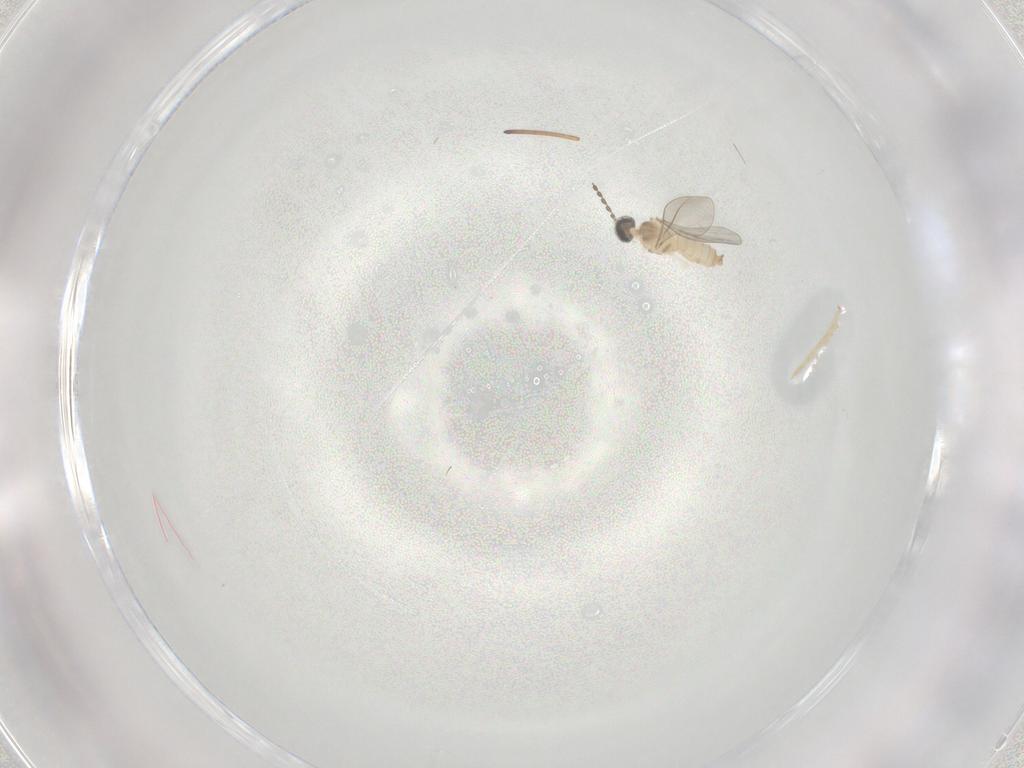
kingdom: Animalia
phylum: Arthropoda
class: Insecta
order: Diptera
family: Cecidomyiidae
